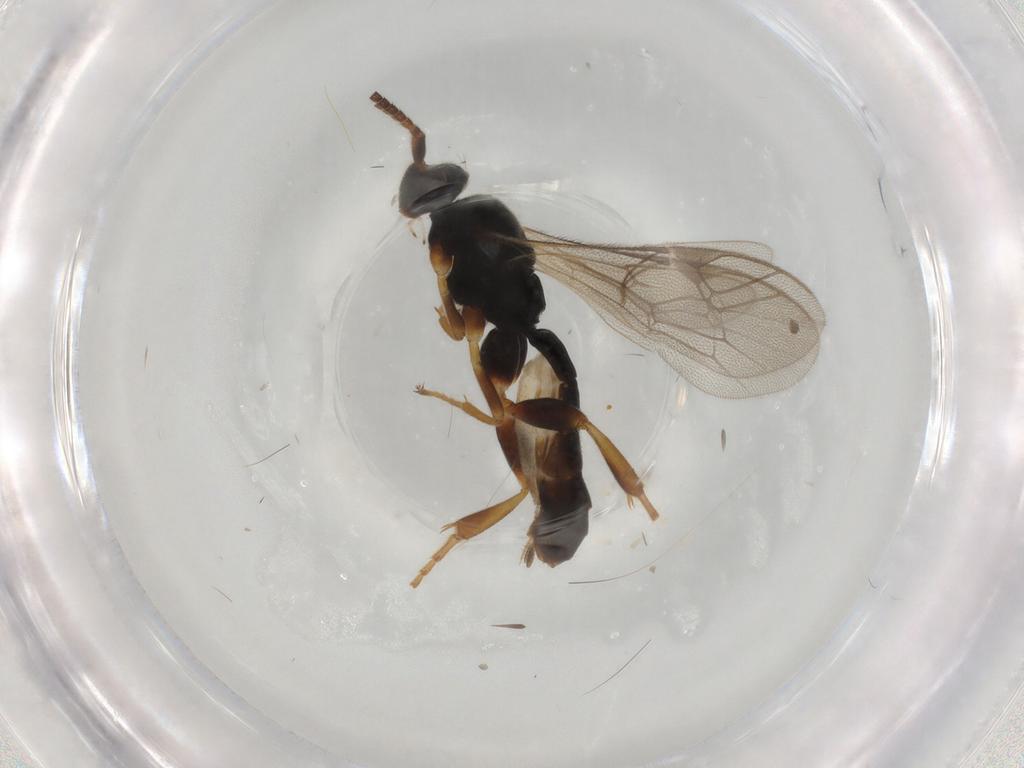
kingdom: Animalia
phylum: Arthropoda
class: Insecta
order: Hymenoptera
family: Ichneumonidae
